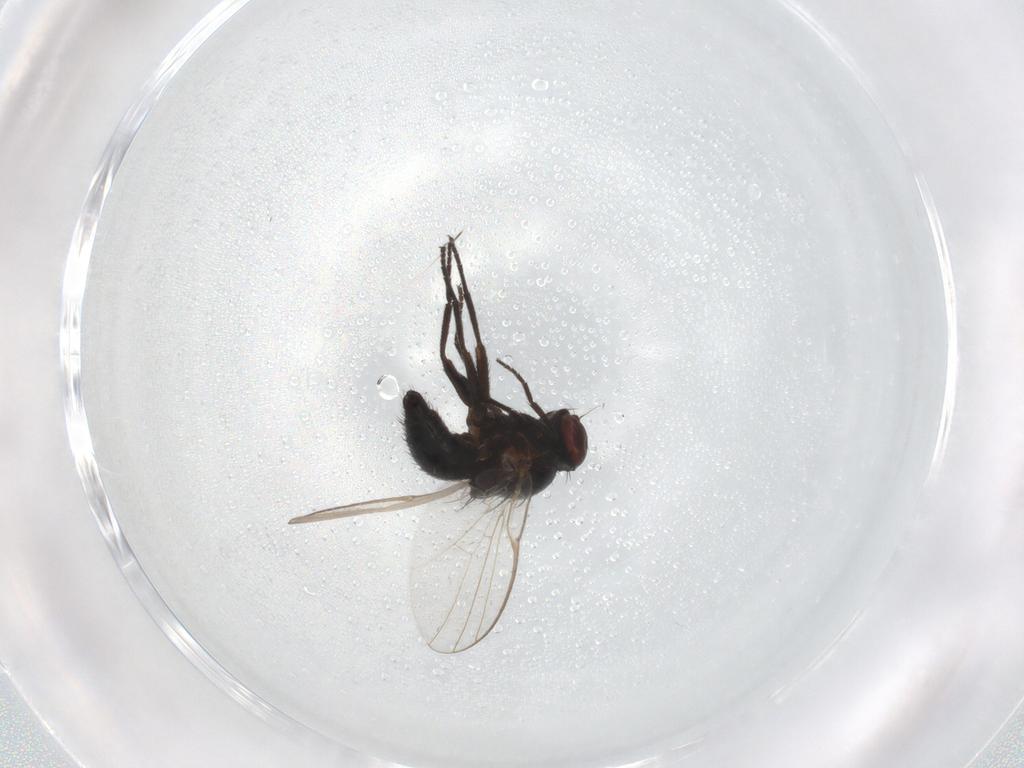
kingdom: Animalia
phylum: Arthropoda
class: Insecta
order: Diptera
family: Agromyzidae
